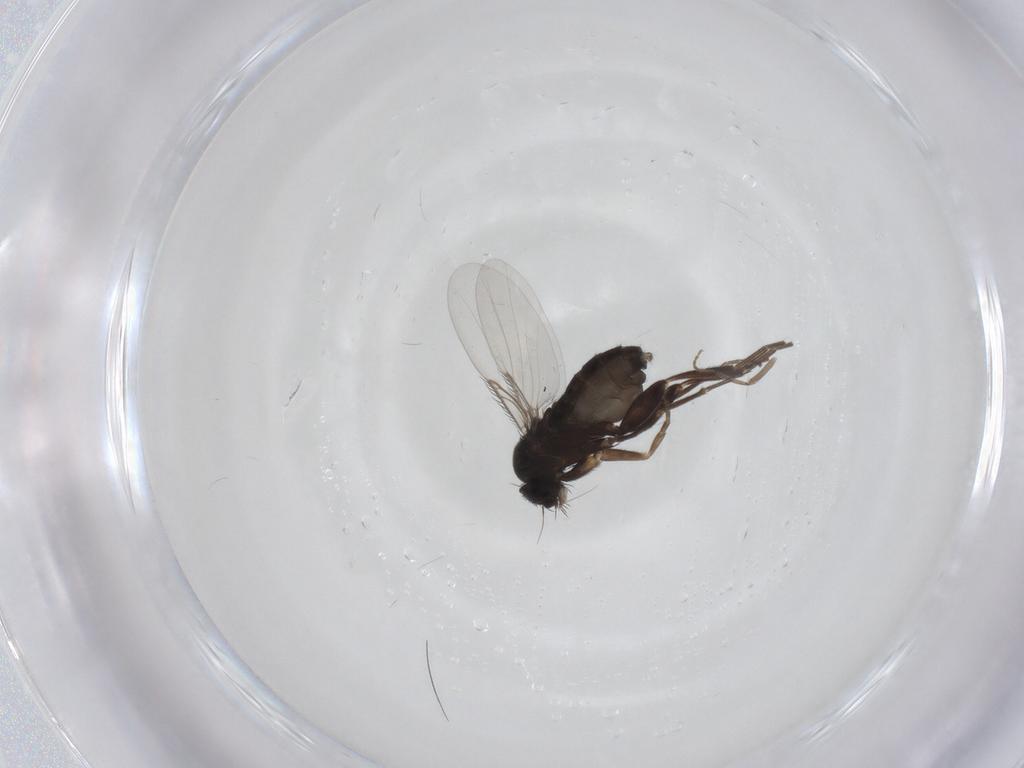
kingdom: Animalia
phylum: Arthropoda
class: Insecta
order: Diptera
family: Phoridae
